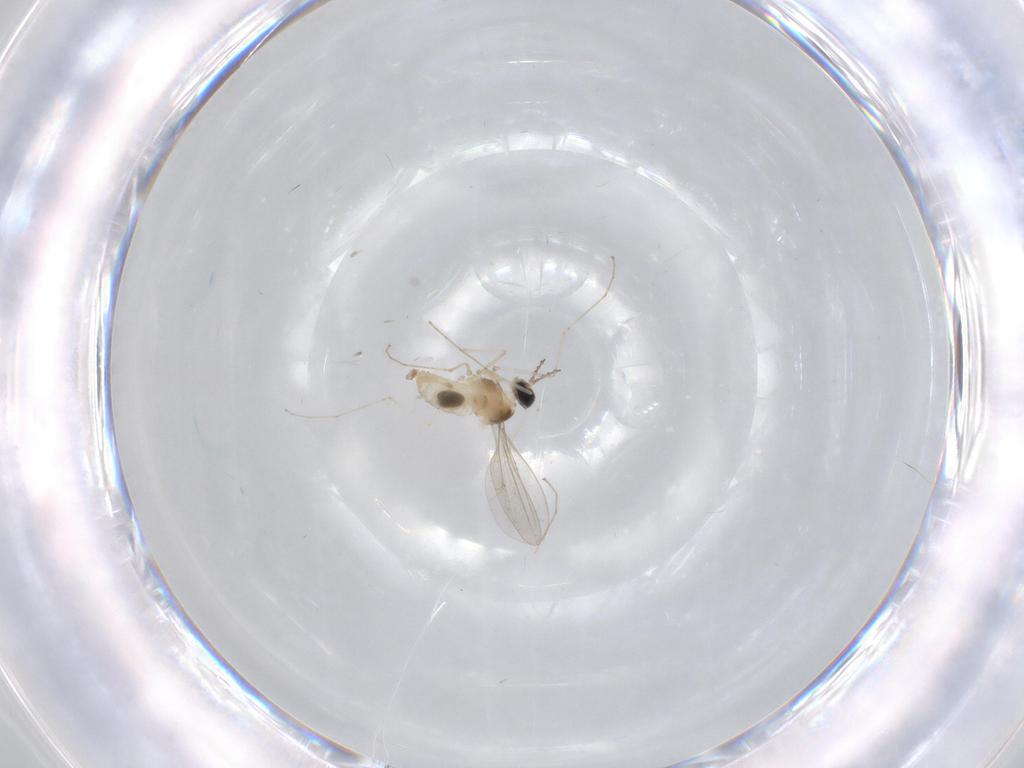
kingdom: Animalia
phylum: Arthropoda
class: Insecta
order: Diptera
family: Cecidomyiidae
